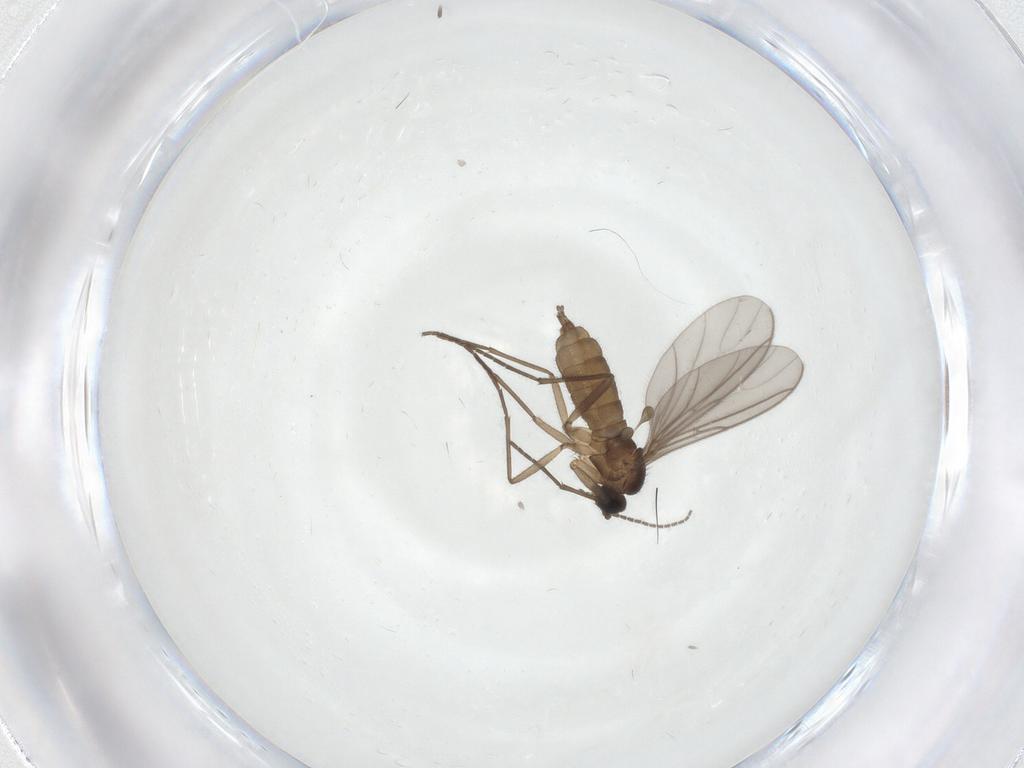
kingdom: Animalia
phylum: Arthropoda
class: Insecta
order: Diptera
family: Sciaridae
